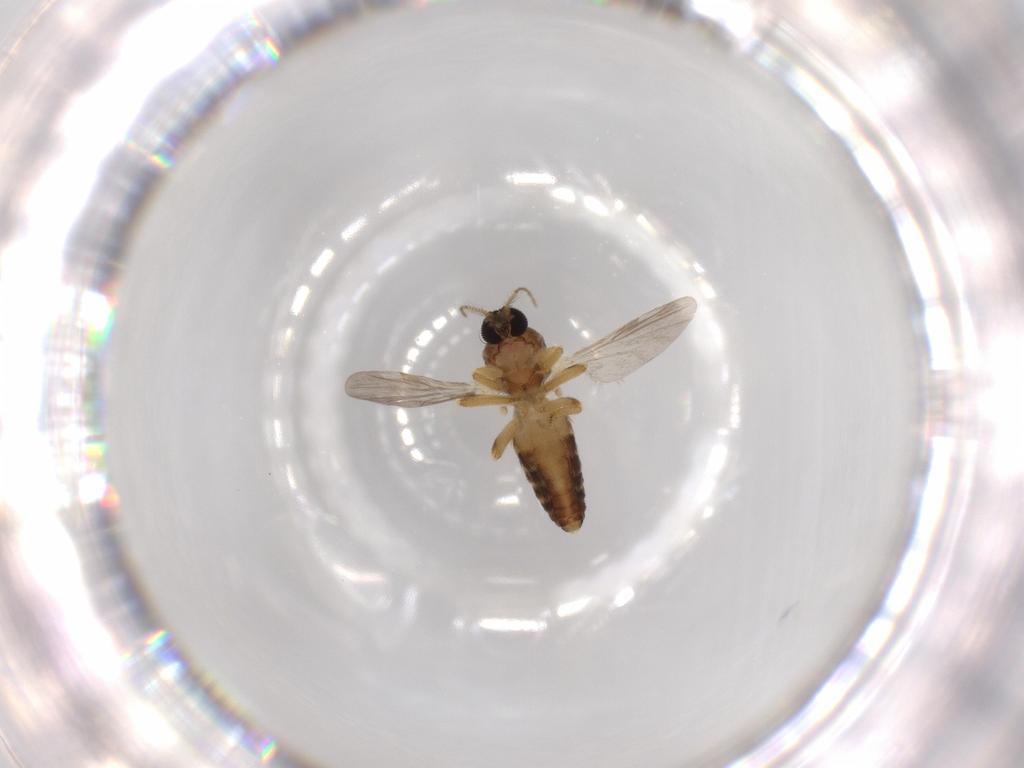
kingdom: Animalia
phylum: Arthropoda
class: Insecta
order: Diptera
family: Ceratopogonidae
